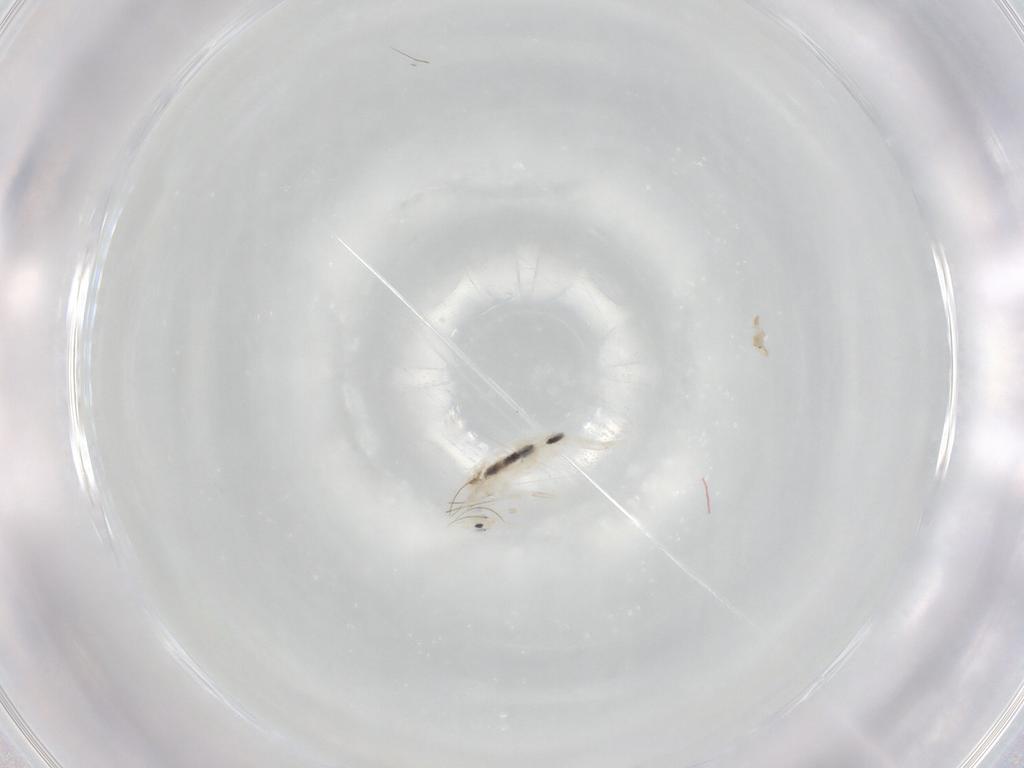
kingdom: Animalia
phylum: Arthropoda
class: Collembola
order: Entomobryomorpha
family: Entomobryidae
